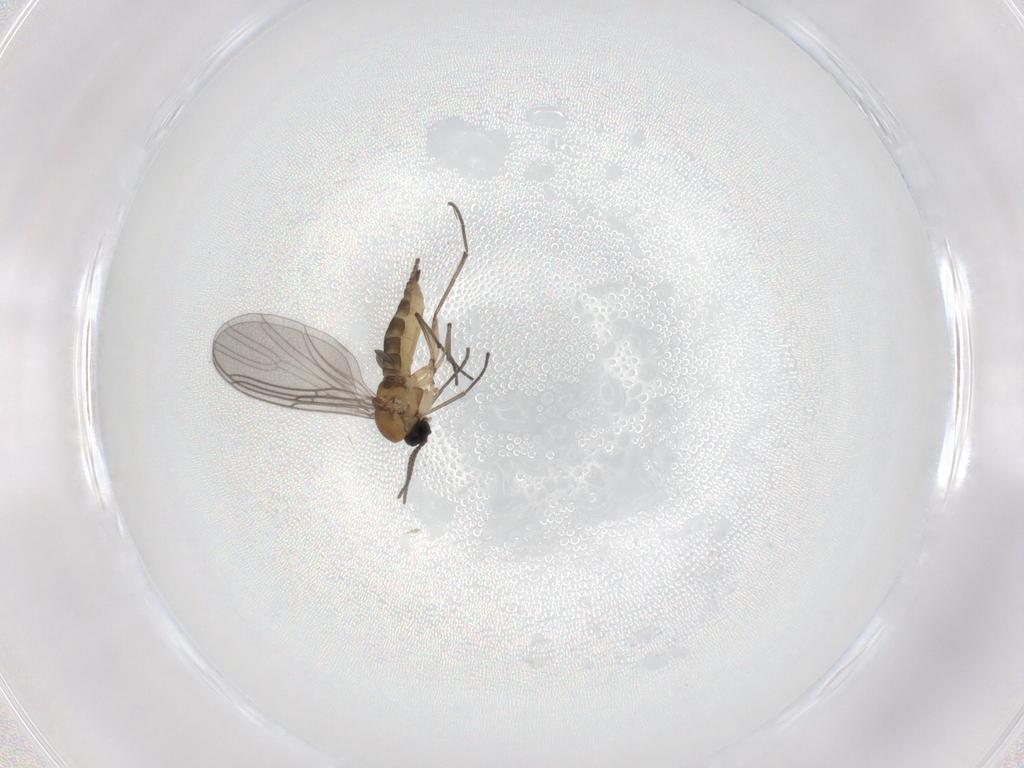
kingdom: Animalia
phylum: Arthropoda
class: Insecta
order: Diptera
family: Sciaridae
